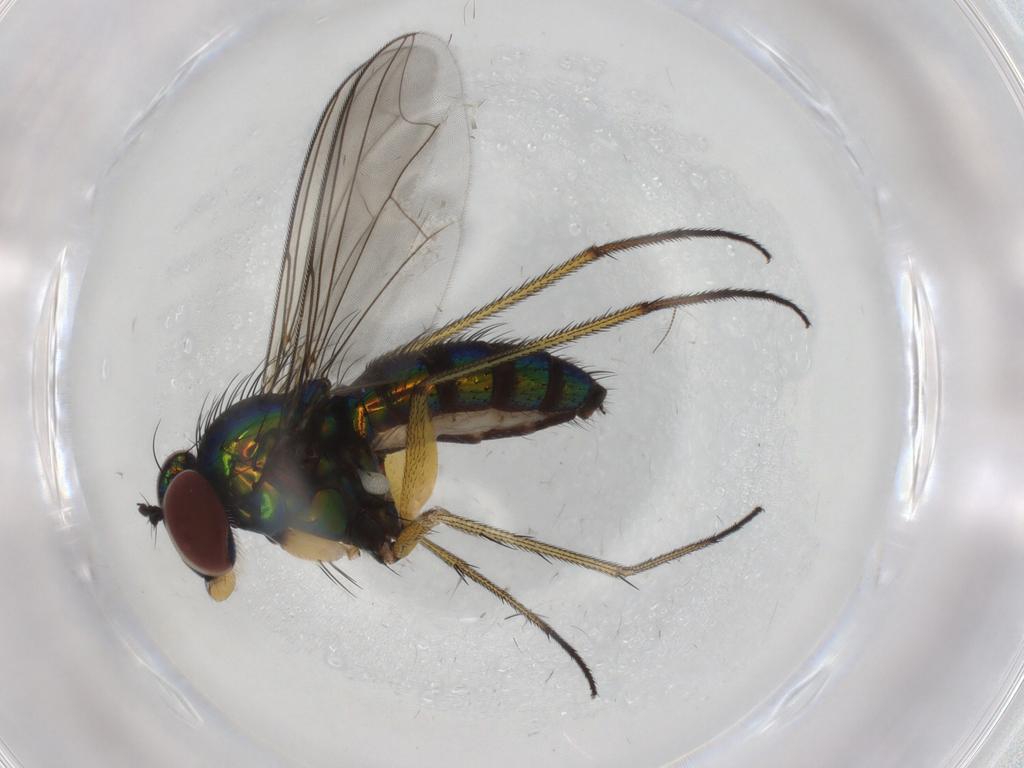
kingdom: Animalia
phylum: Arthropoda
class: Insecta
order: Diptera
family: Dolichopodidae
